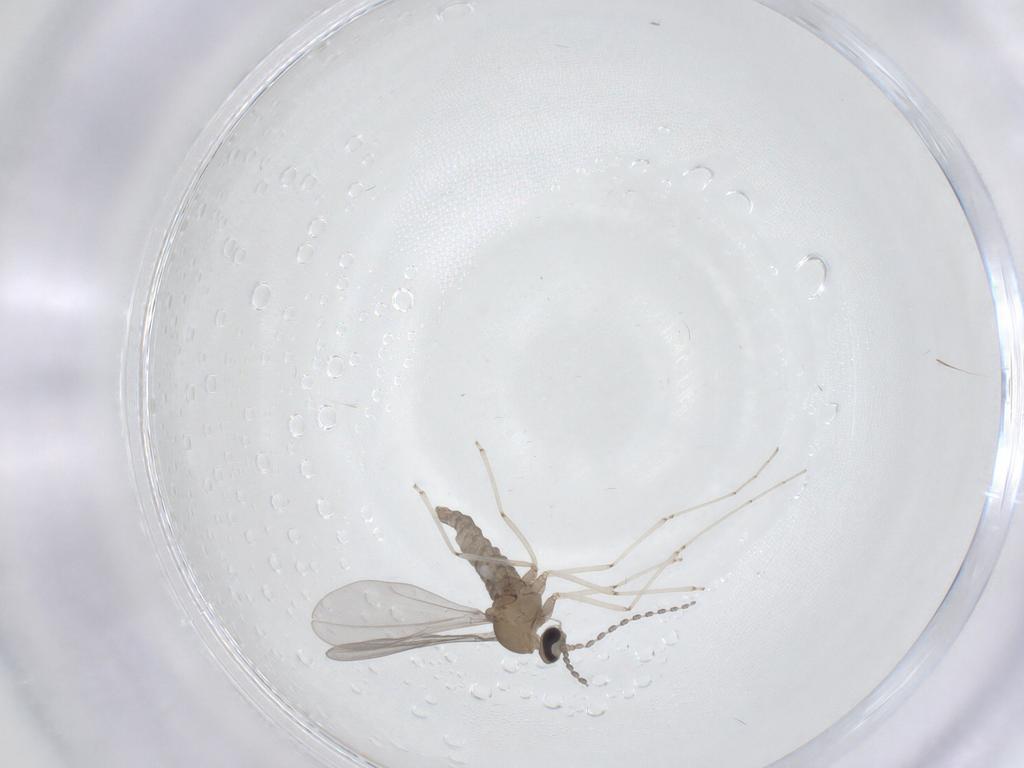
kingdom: Animalia
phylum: Arthropoda
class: Insecta
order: Diptera
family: Cecidomyiidae
